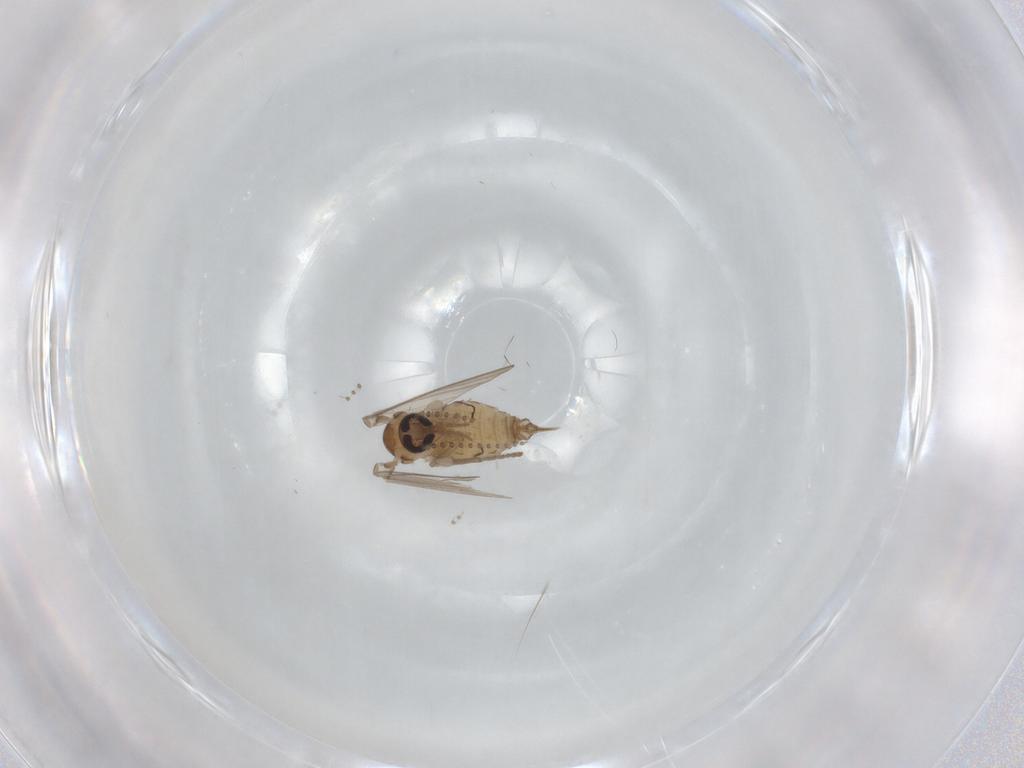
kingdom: Animalia
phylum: Arthropoda
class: Insecta
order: Diptera
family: Psychodidae
